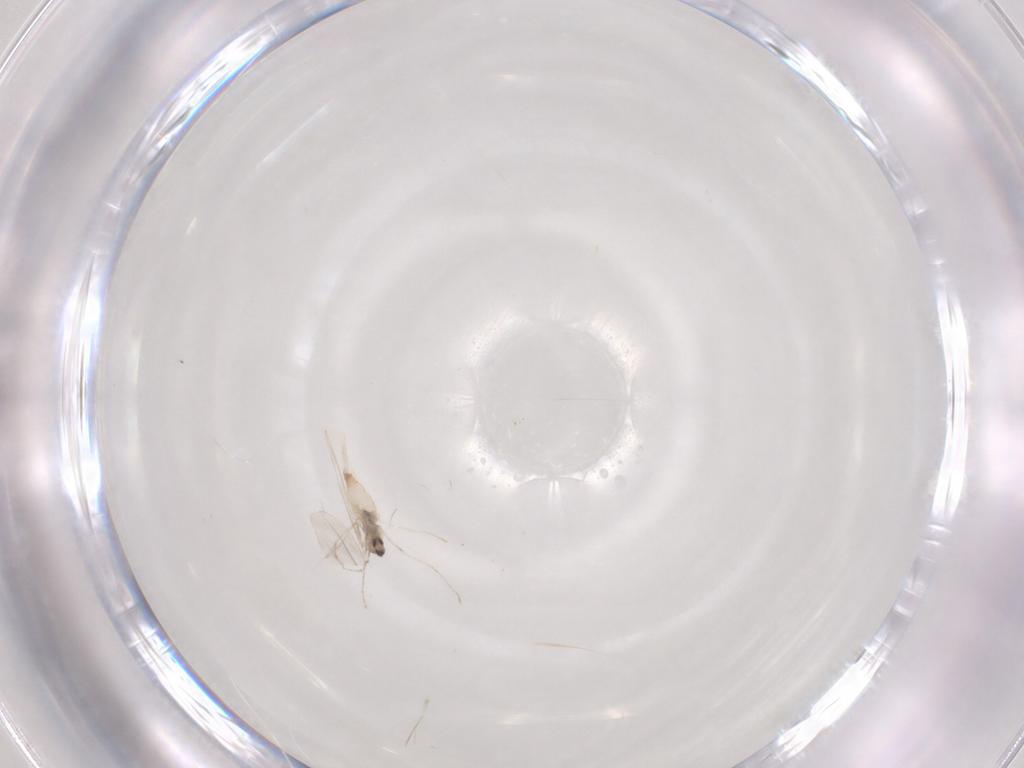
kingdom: Animalia
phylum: Arthropoda
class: Insecta
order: Diptera
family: Cecidomyiidae
